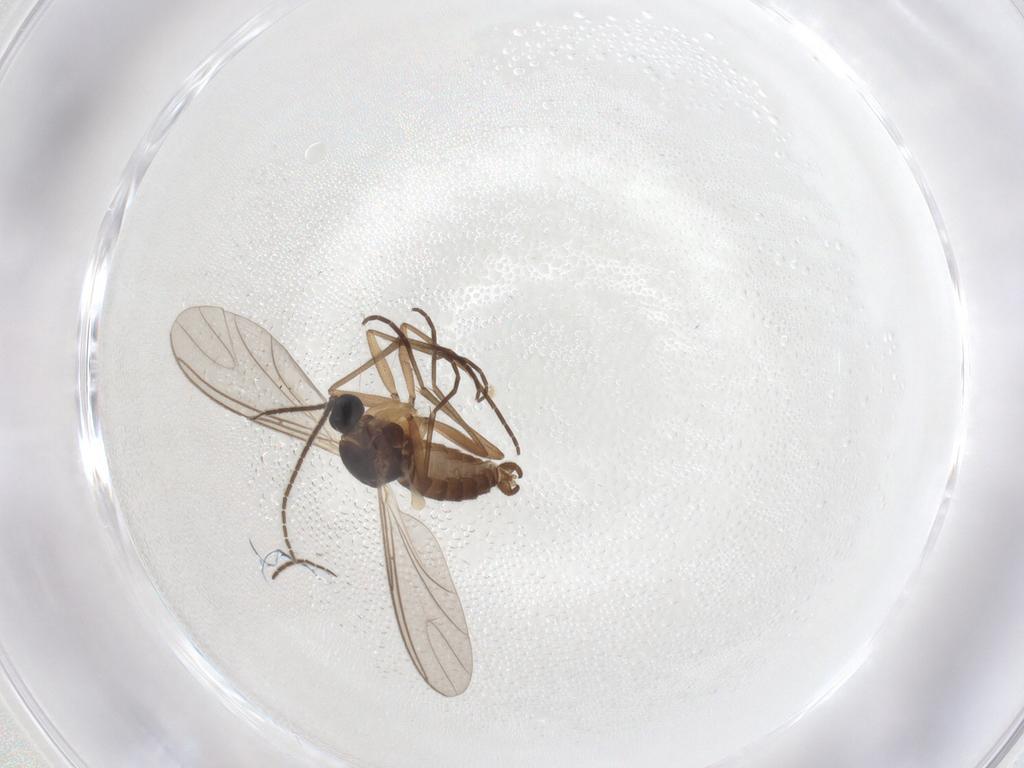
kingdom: Animalia
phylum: Arthropoda
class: Insecta
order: Diptera
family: Sciaridae
